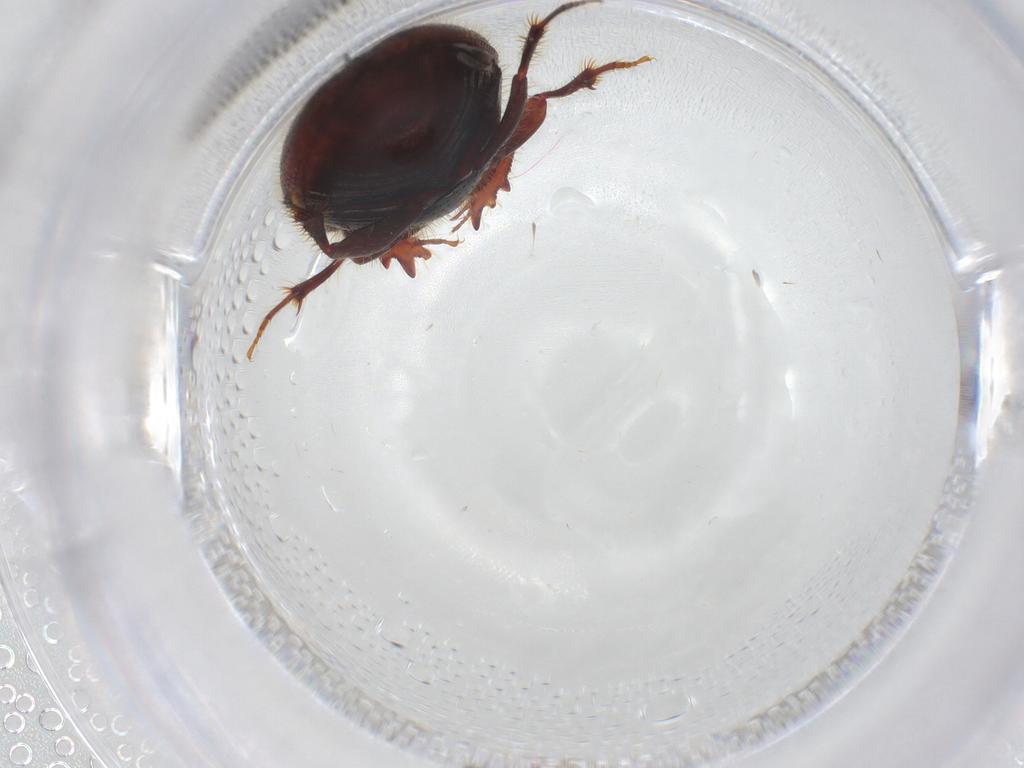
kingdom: Animalia
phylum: Arthropoda
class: Insecta
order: Coleoptera
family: Scarabaeidae
